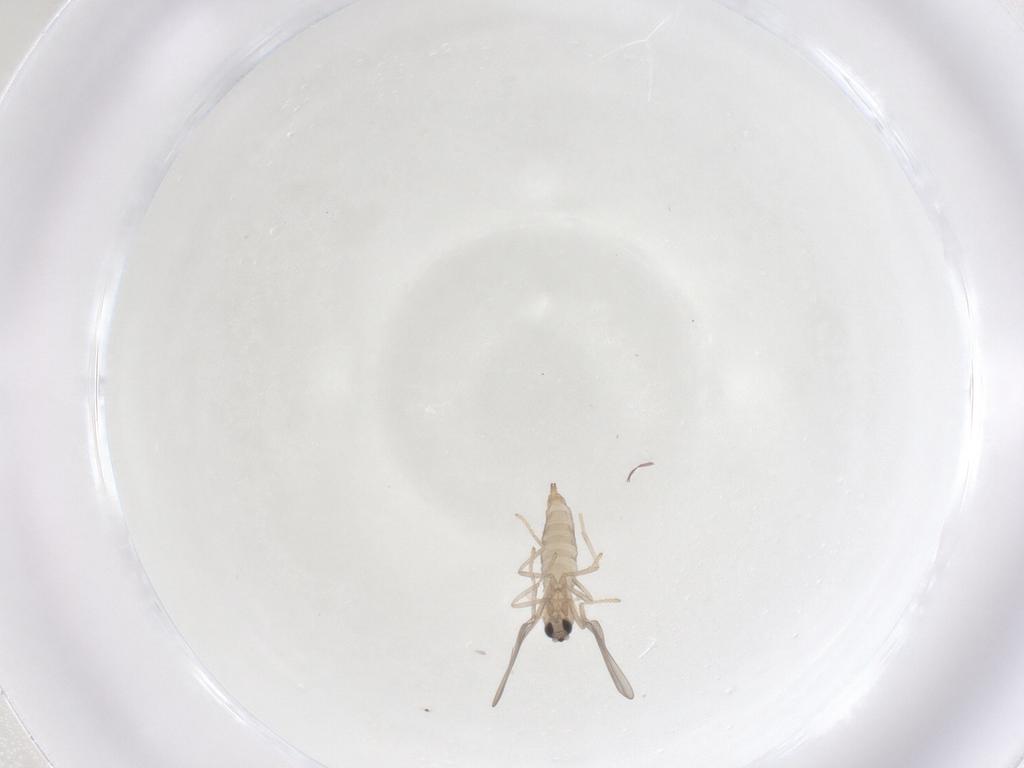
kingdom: Animalia
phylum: Arthropoda
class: Insecta
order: Diptera
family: Cecidomyiidae
